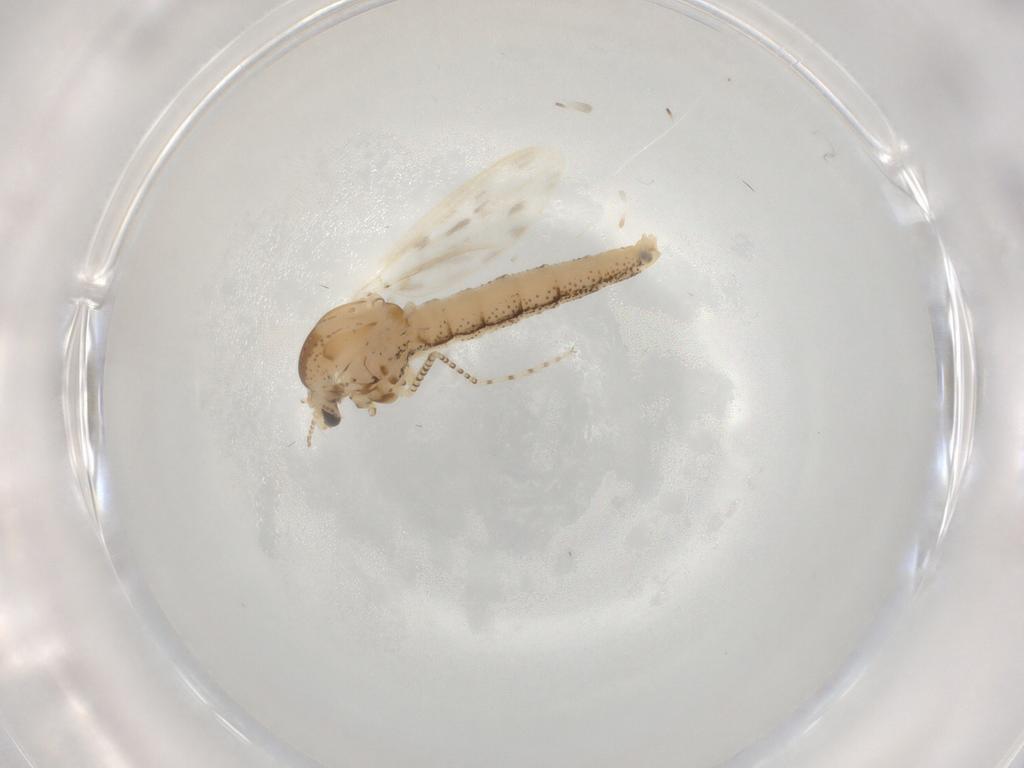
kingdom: Animalia
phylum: Arthropoda
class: Insecta
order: Diptera
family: Chaoboridae
